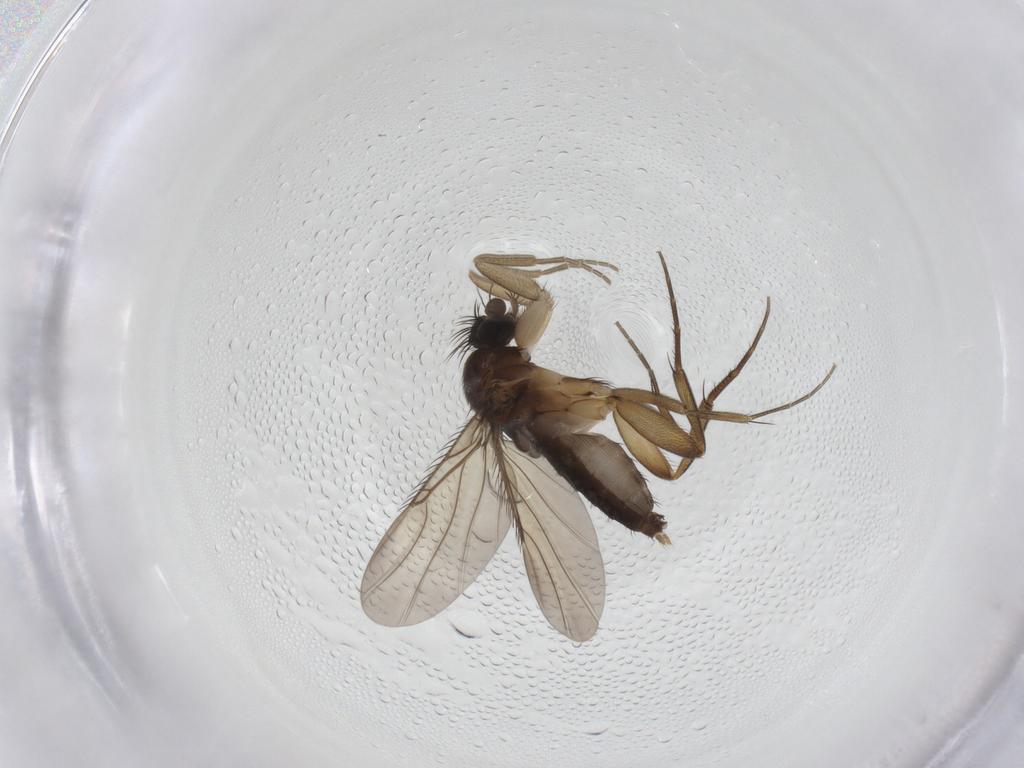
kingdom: Animalia
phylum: Arthropoda
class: Insecta
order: Diptera
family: Phoridae
